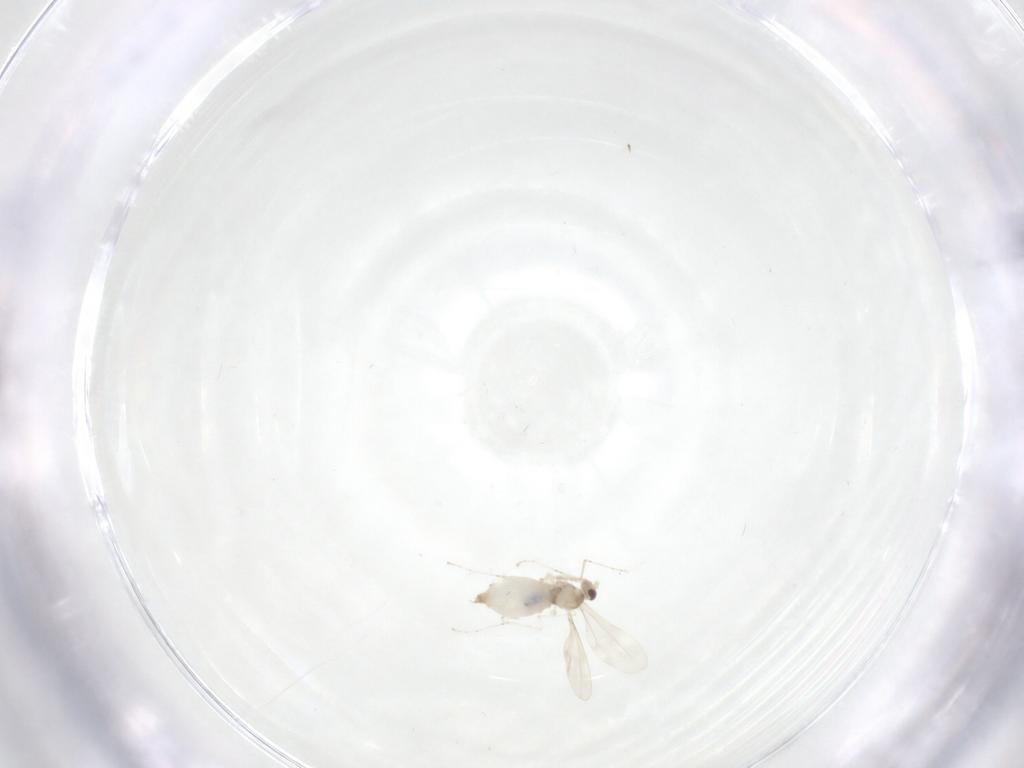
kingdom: Animalia
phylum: Arthropoda
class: Insecta
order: Diptera
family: Cecidomyiidae
